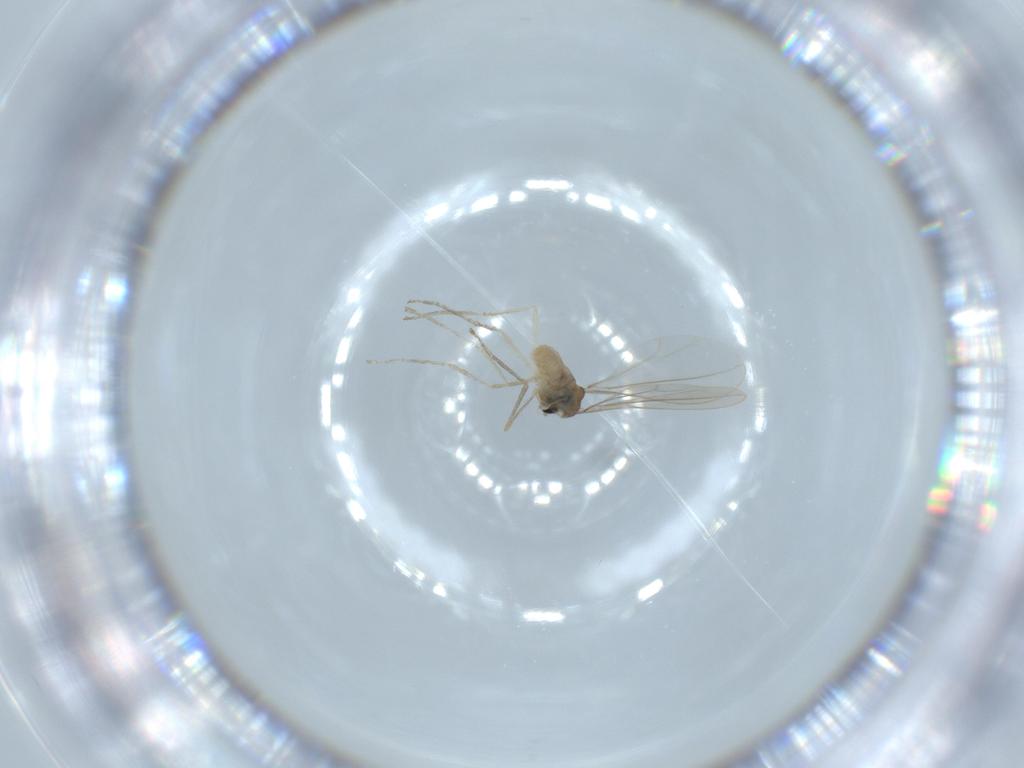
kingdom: Animalia
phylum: Arthropoda
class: Insecta
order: Diptera
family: Cecidomyiidae
